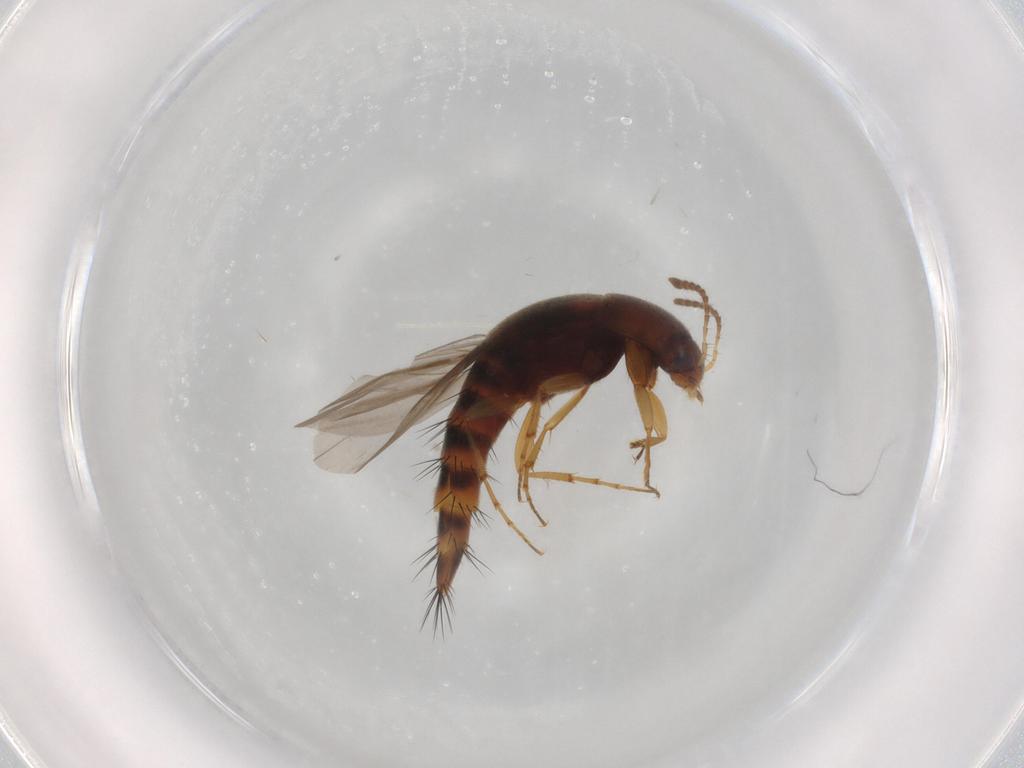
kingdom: Animalia
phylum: Arthropoda
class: Insecta
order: Coleoptera
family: Staphylinidae
